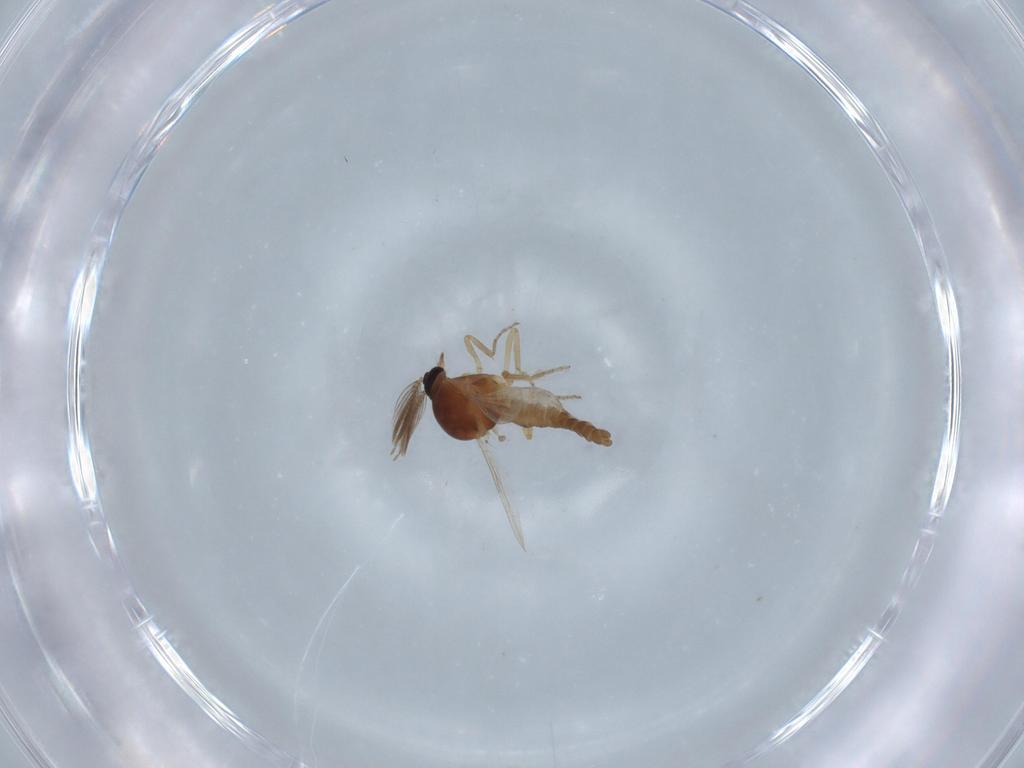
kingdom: Animalia
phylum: Arthropoda
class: Insecta
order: Diptera
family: Ceratopogonidae
